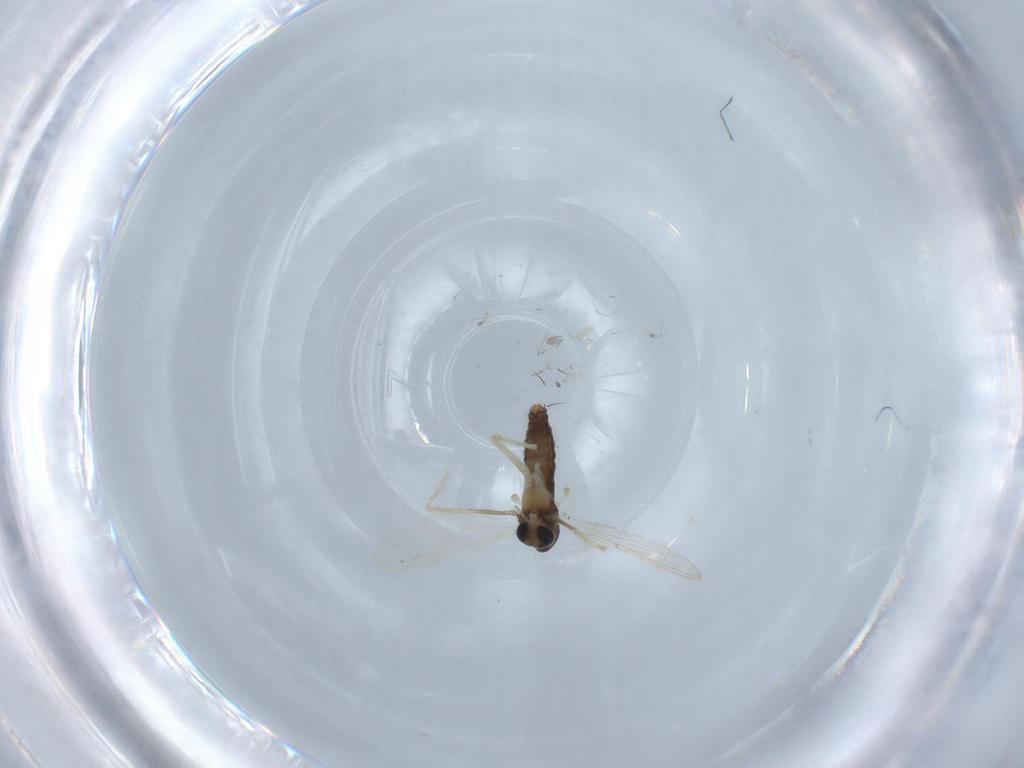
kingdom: Animalia
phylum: Arthropoda
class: Insecta
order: Diptera
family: Chironomidae
